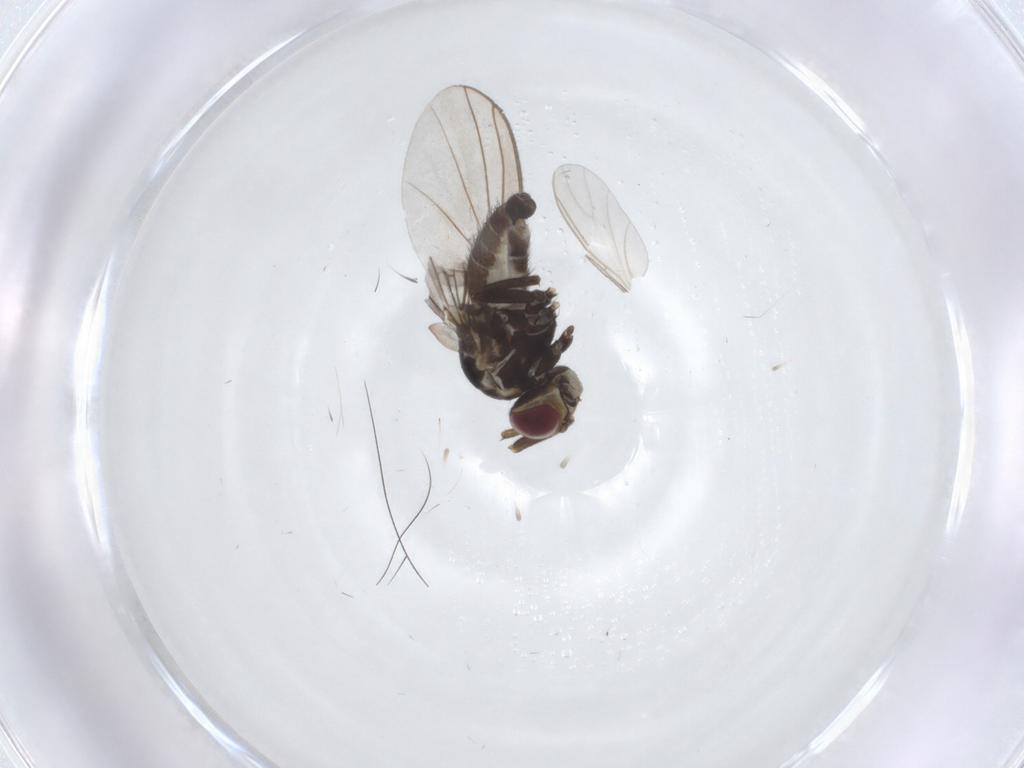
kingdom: Animalia
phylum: Arthropoda
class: Insecta
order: Diptera
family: Agromyzidae
